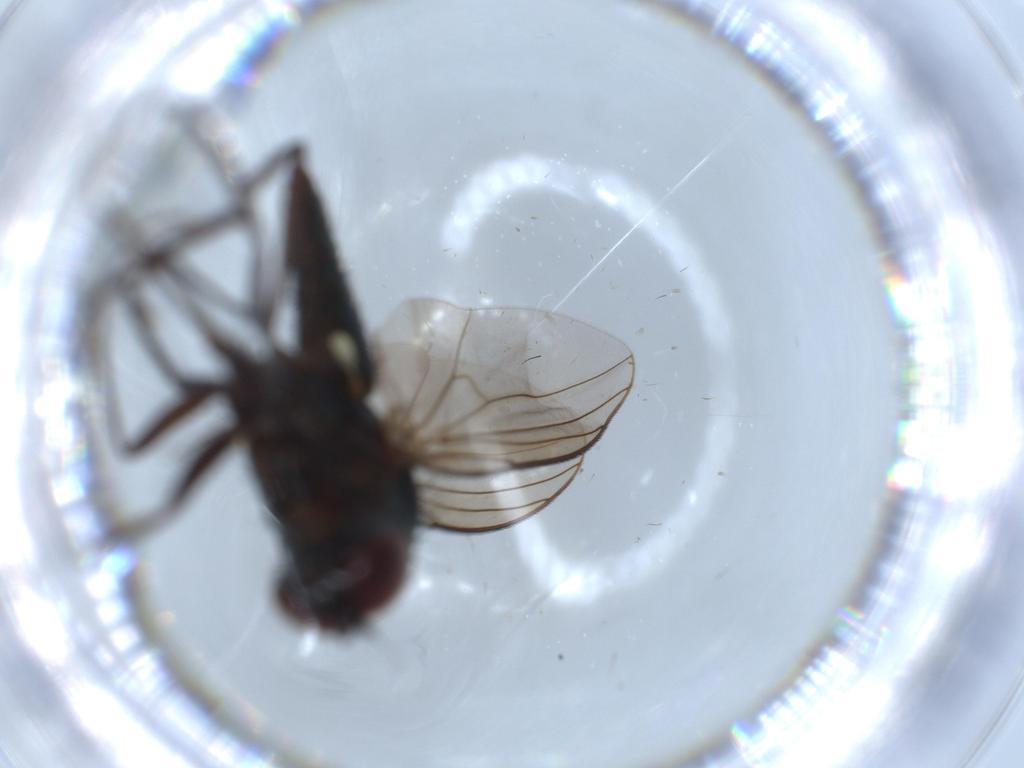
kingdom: Animalia
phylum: Arthropoda
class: Insecta
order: Diptera
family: Dolichopodidae
